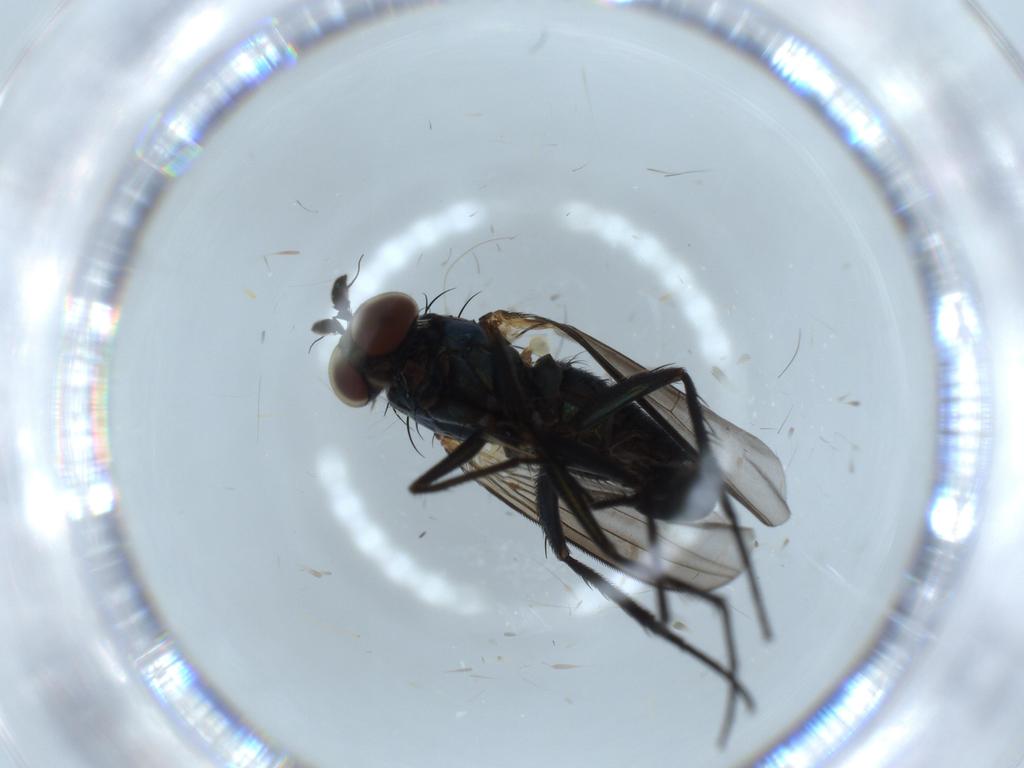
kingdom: Animalia
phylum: Arthropoda
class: Insecta
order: Diptera
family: Dolichopodidae
